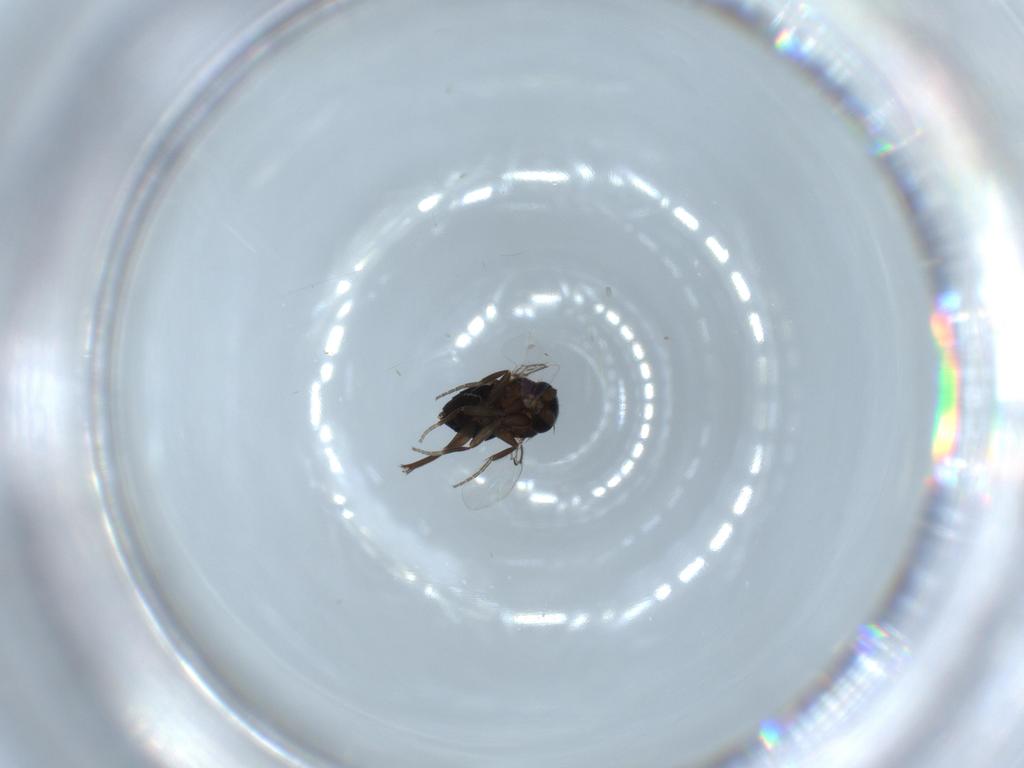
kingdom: Animalia
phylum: Arthropoda
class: Insecta
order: Diptera
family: Phoridae
